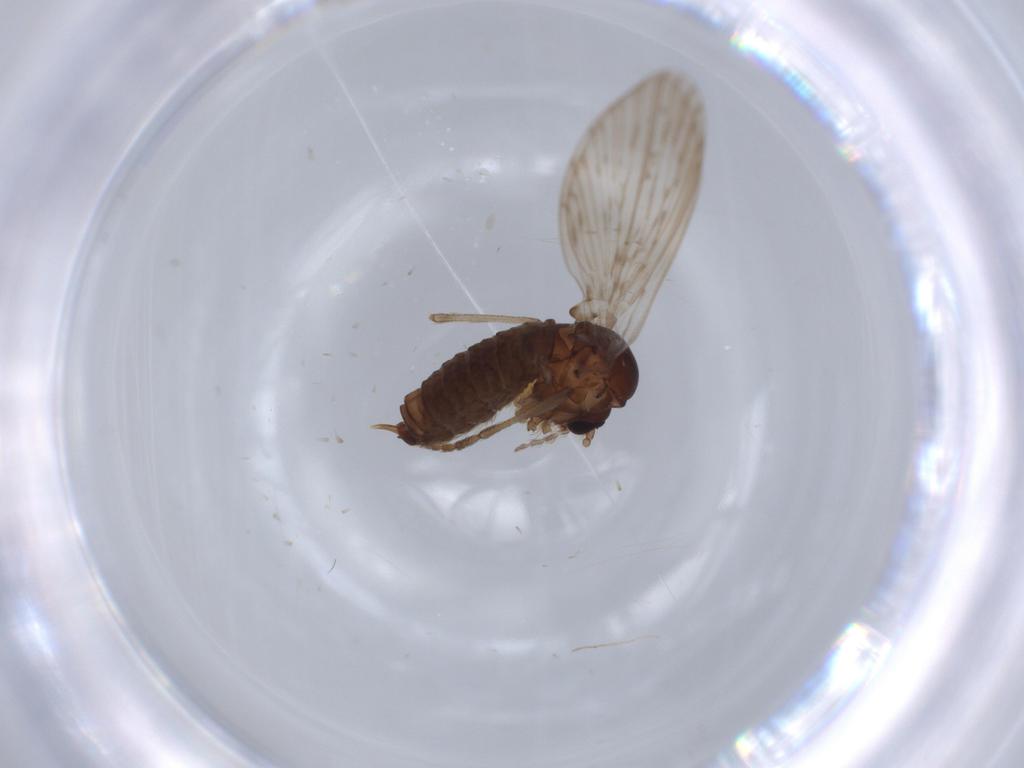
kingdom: Animalia
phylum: Arthropoda
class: Insecta
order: Diptera
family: Psychodidae
